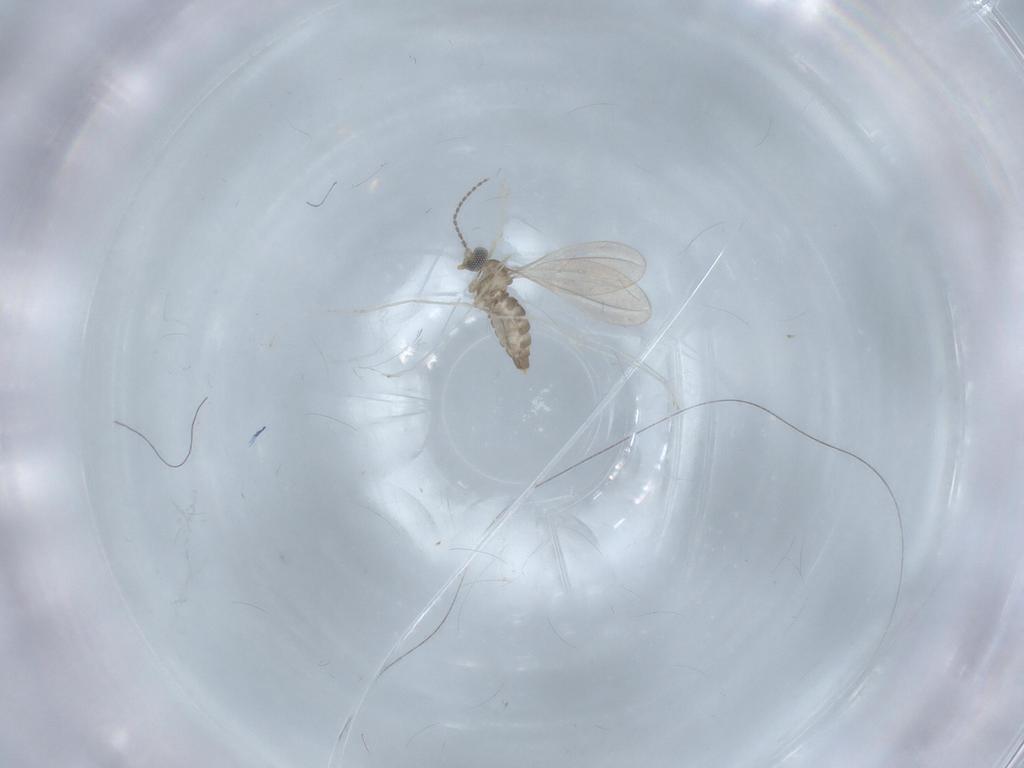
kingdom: Animalia
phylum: Arthropoda
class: Insecta
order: Diptera
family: Cecidomyiidae
